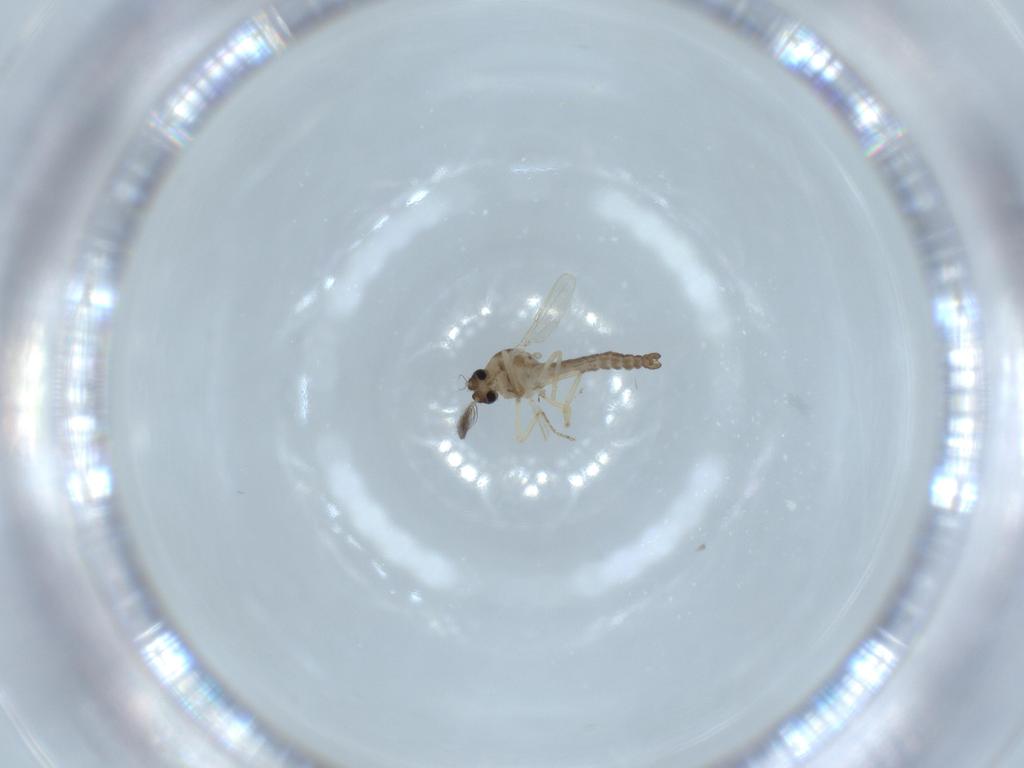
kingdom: Animalia
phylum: Arthropoda
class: Insecta
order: Diptera
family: Ceratopogonidae
